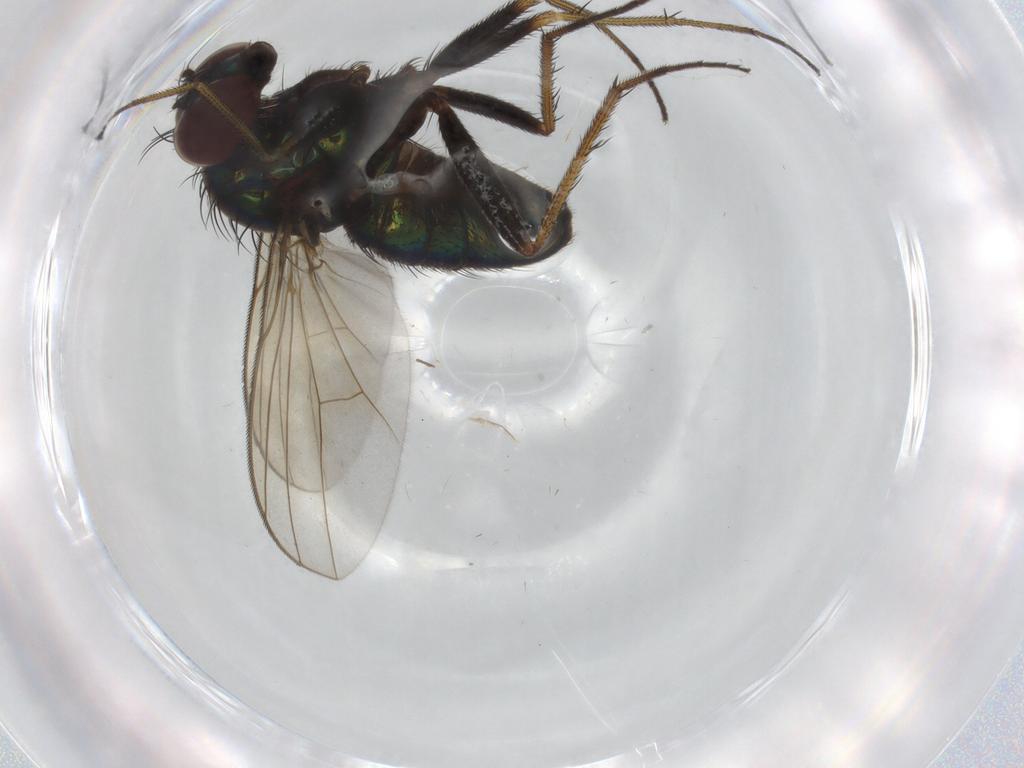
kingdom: Animalia
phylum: Arthropoda
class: Insecta
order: Diptera
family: Dolichopodidae
